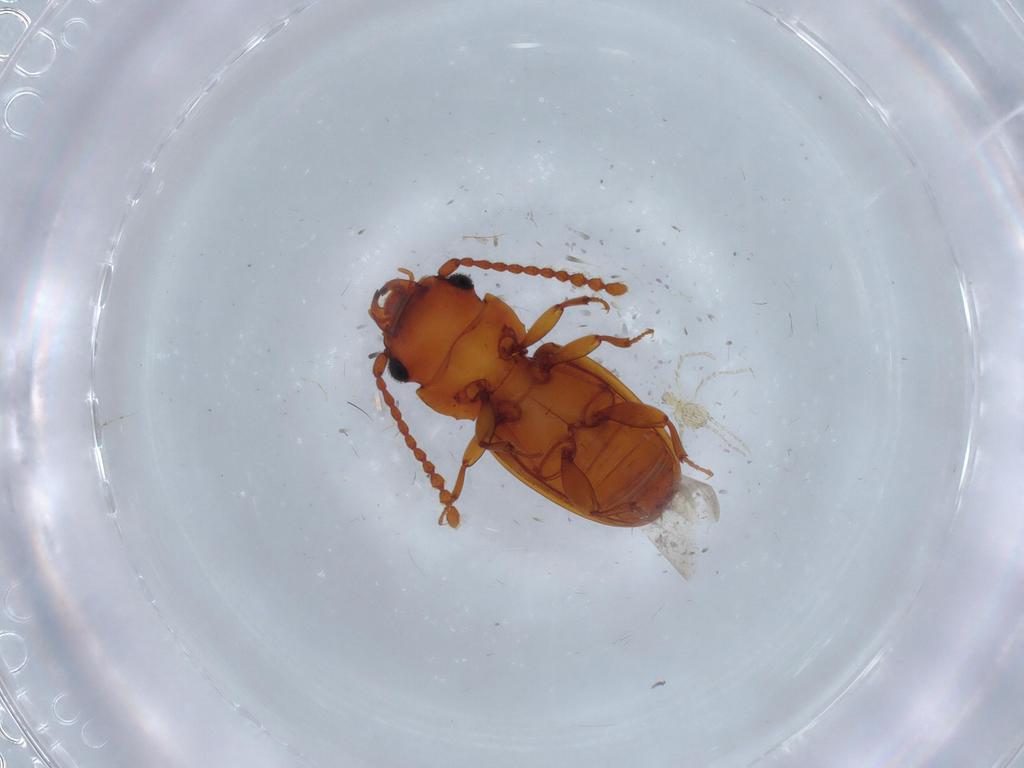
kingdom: Animalia
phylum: Arthropoda
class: Insecta
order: Coleoptera
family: Laemophloeidae
